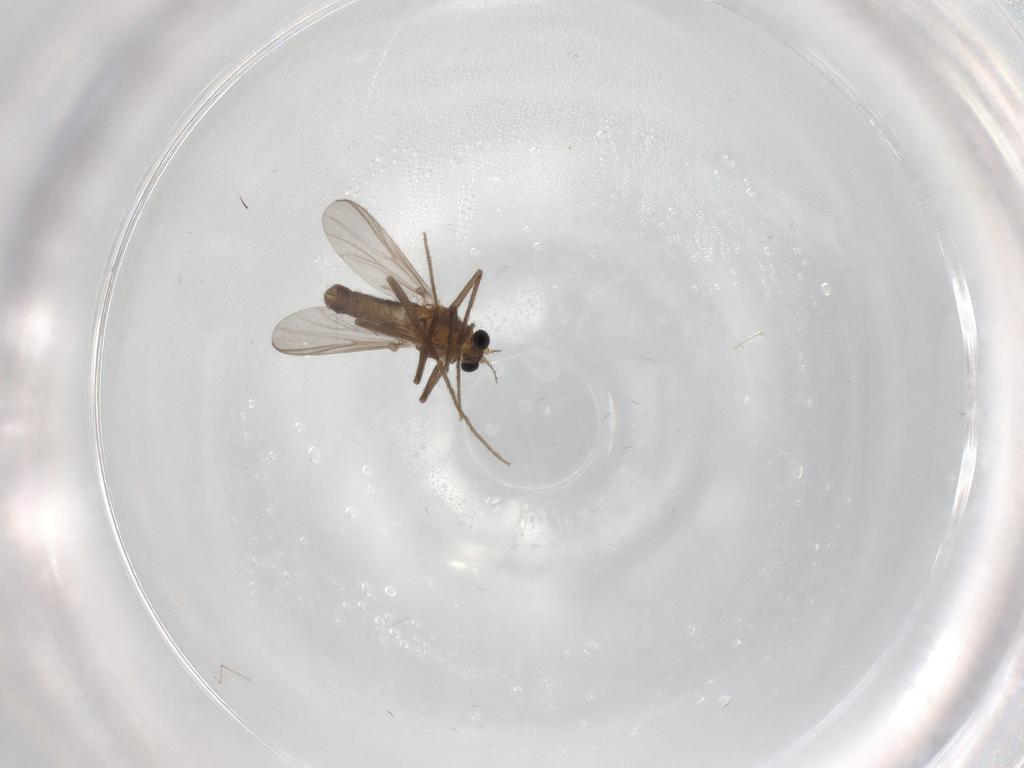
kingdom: Animalia
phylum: Arthropoda
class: Insecta
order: Diptera
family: Chironomidae
